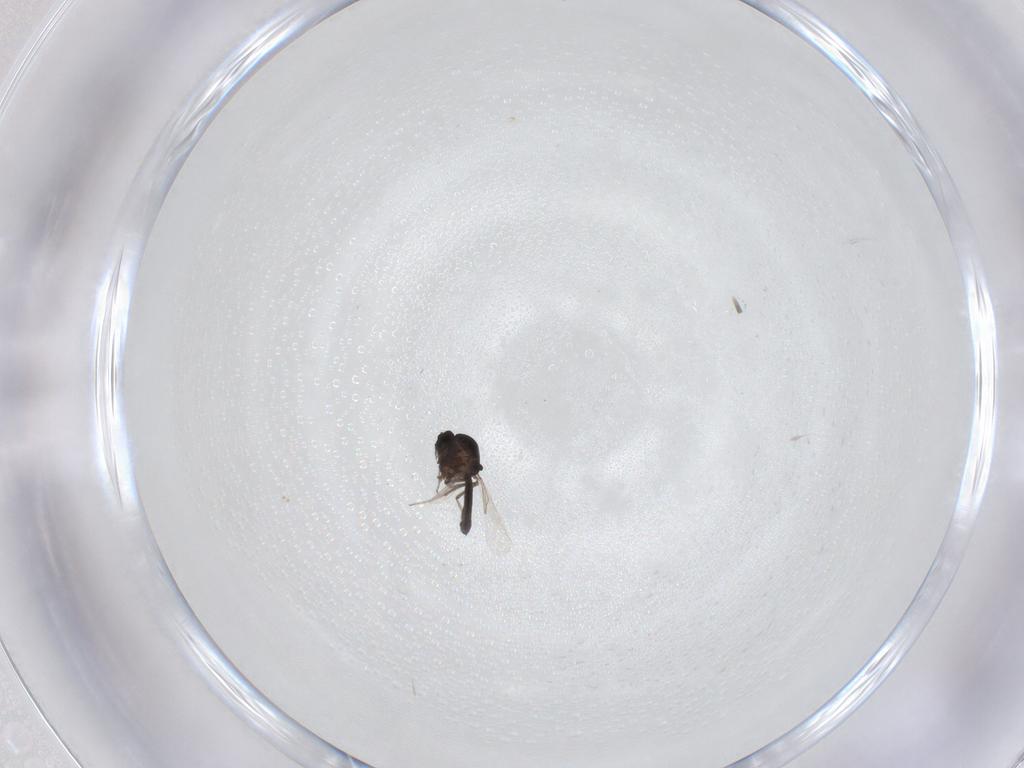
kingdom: Animalia
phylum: Arthropoda
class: Insecta
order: Diptera
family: Ceratopogonidae
